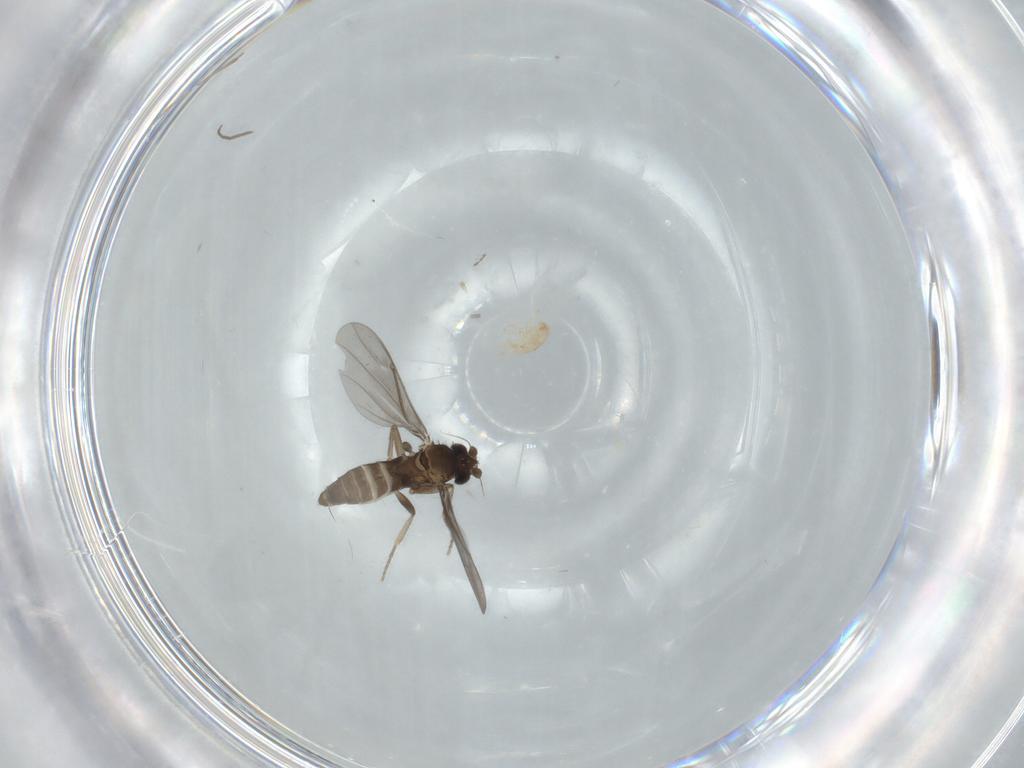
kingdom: Animalia
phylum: Arthropoda
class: Insecta
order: Diptera
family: Chironomidae
